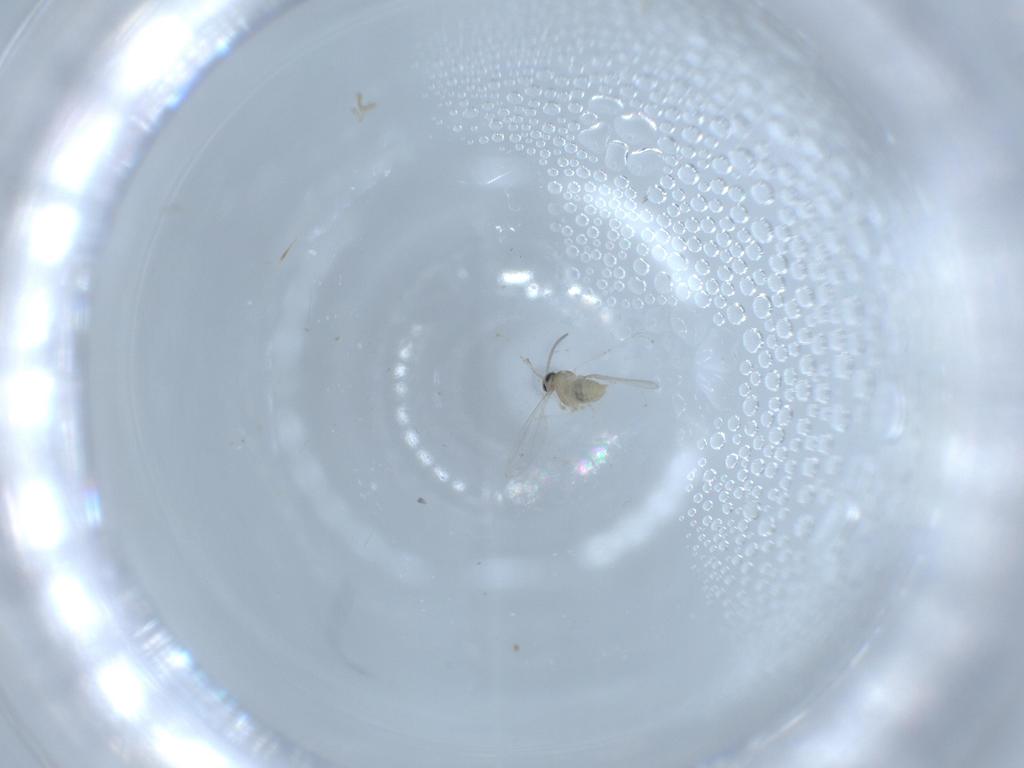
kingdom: Animalia
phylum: Arthropoda
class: Insecta
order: Diptera
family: Cecidomyiidae
